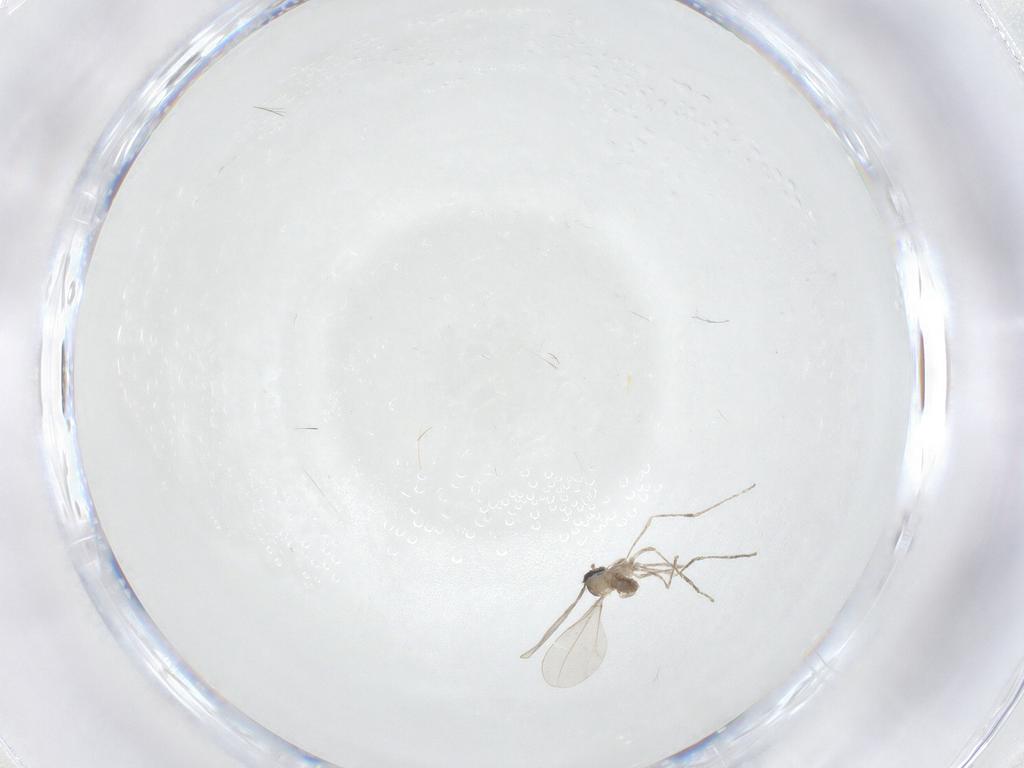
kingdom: Animalia
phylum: Arthropoda
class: Insecta
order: Diptera
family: Cecidomyiidae
